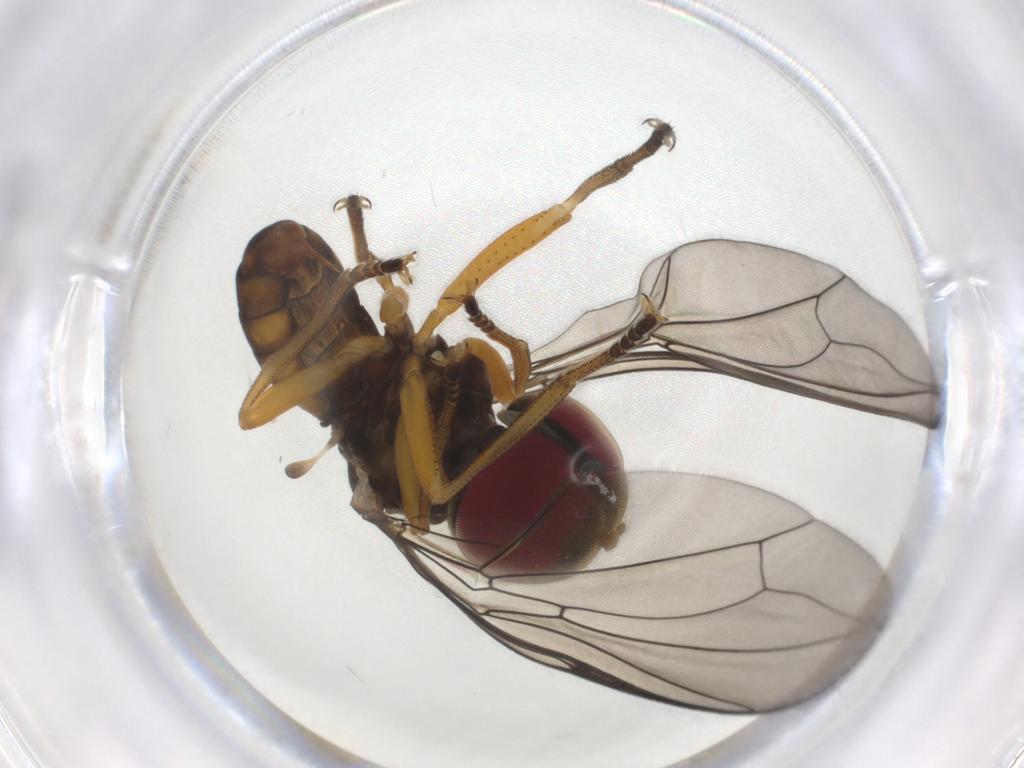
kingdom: Animalia
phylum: Arthropoda
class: Insecta
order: Diptera
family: Pipunculidae
